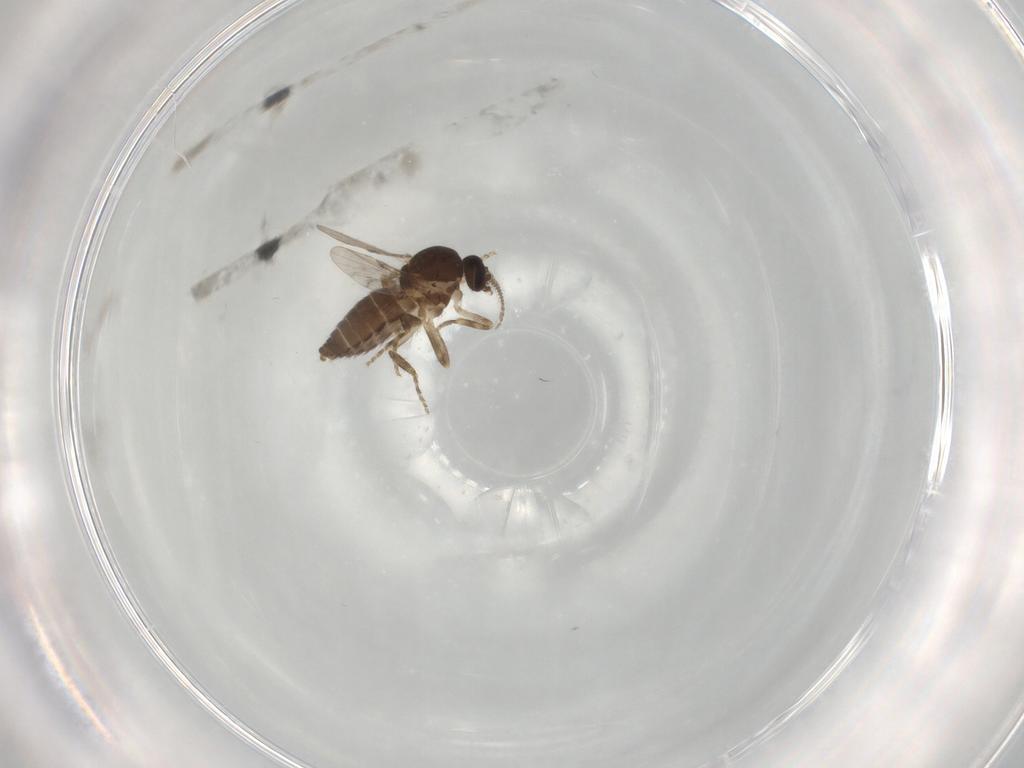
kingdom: Animalia
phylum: Arthropoda
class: Insecta
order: Diptera
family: Ceratopogonidae
